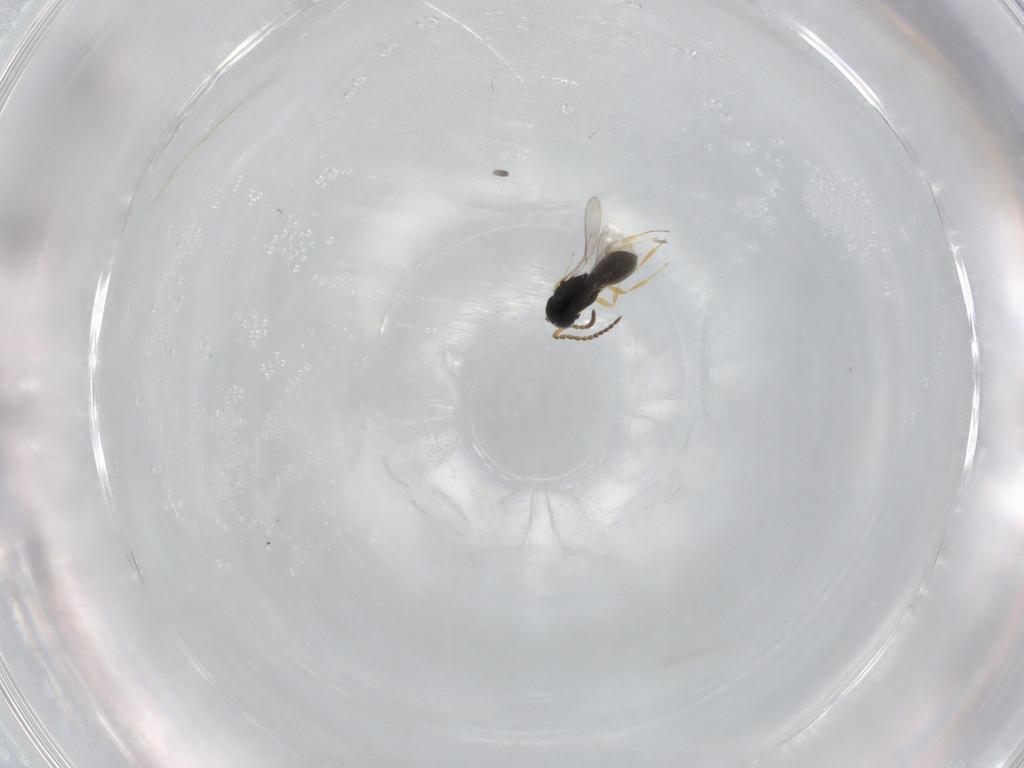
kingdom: Animalia
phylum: Arthropoda
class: Insecta
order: Hymenoptera
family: Scelionidae
